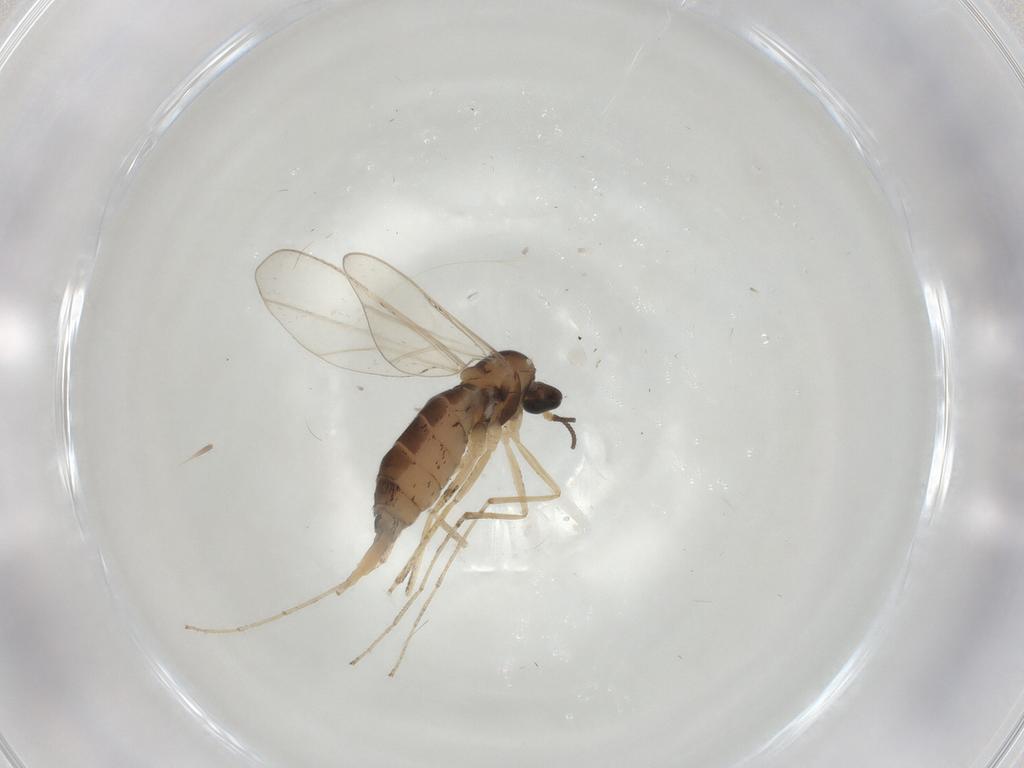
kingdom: Animalia
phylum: Arthropoda
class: Insecta
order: Diptera
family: Cecidomyiidae
